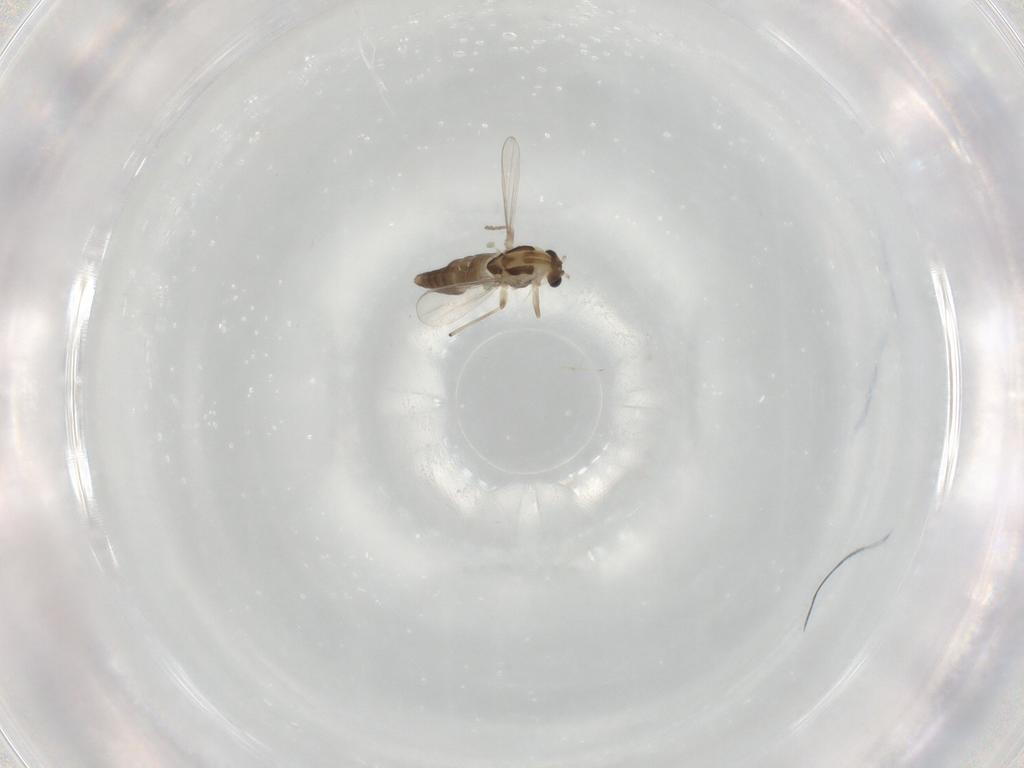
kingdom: Animalia
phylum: Arthropoda
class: Insecta
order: Diptera
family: Chironomidae
